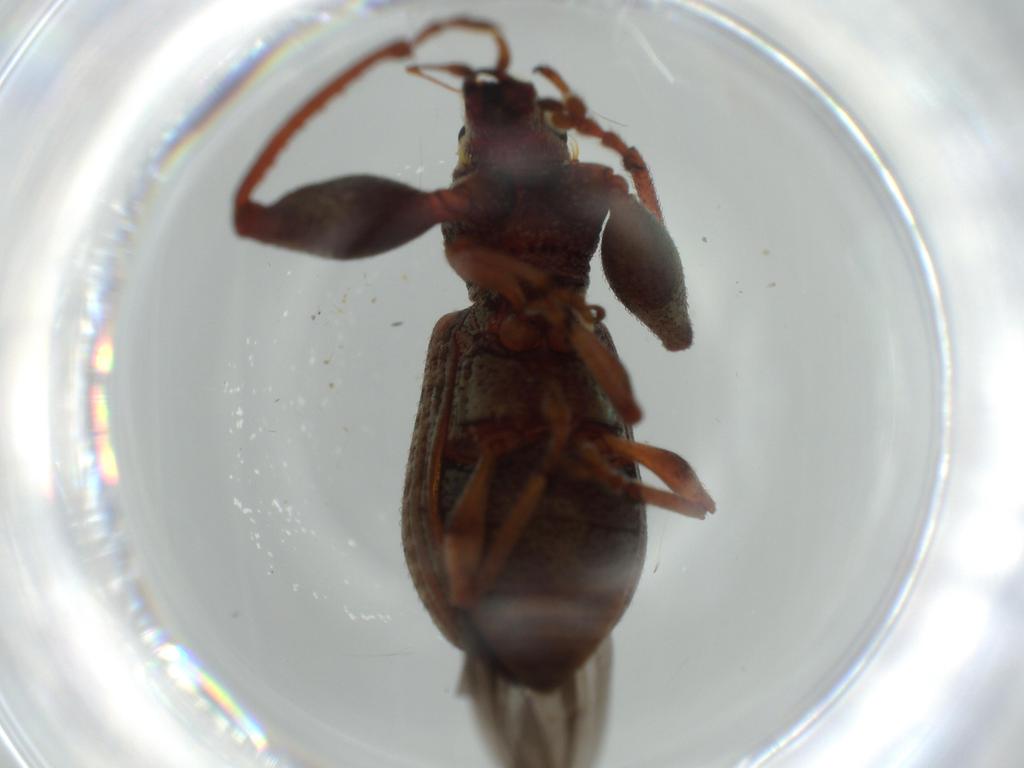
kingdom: Animalia
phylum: Arthropoda
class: Insecta
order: Coleoptera
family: Curculionidae
